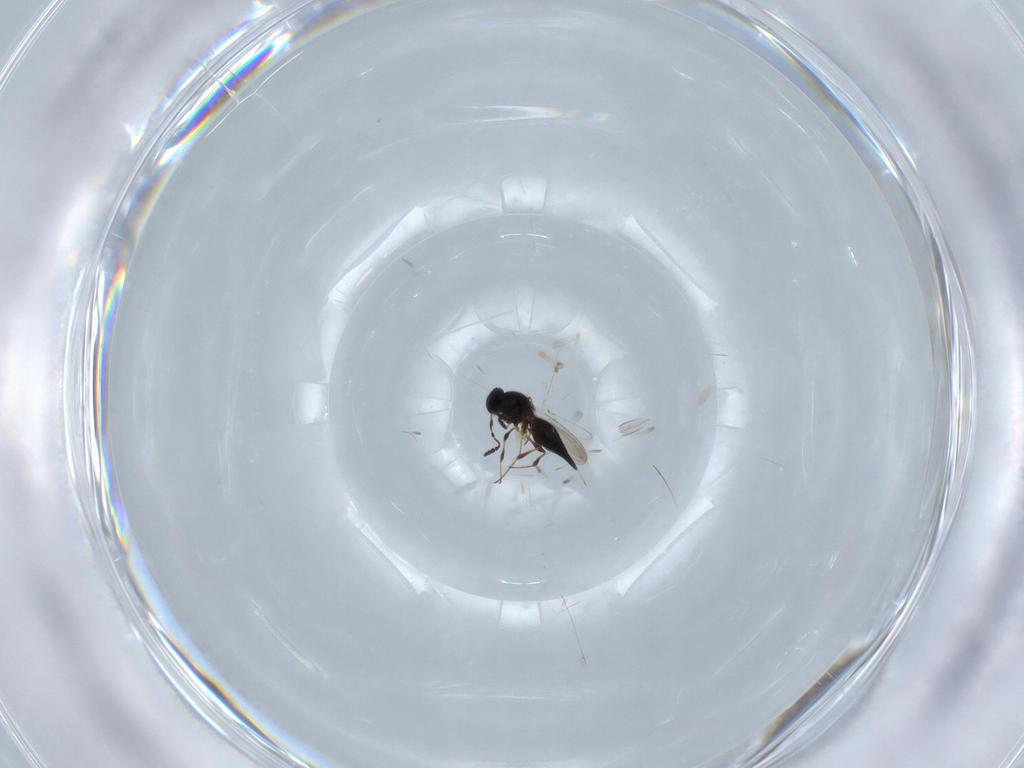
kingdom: Animalia
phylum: Arthropoda
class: Insecta
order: Hymenoptera
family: Platygastridae
